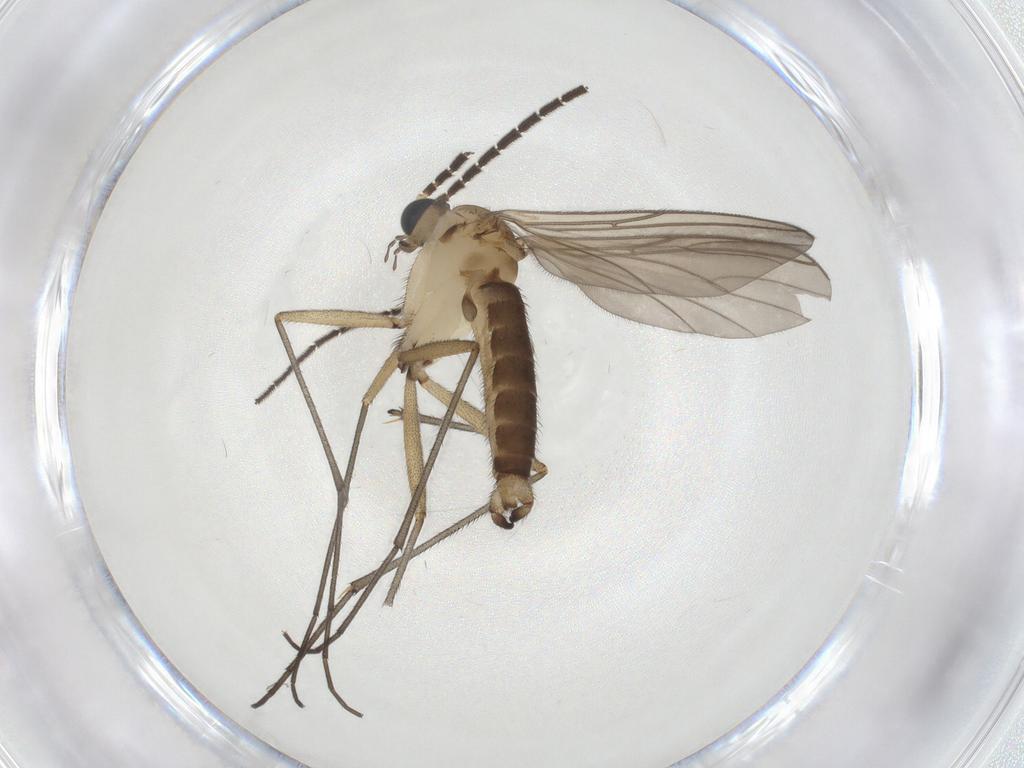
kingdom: Animalia
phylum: Arthropoda
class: Insecta
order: Diptera
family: Sciaridae
